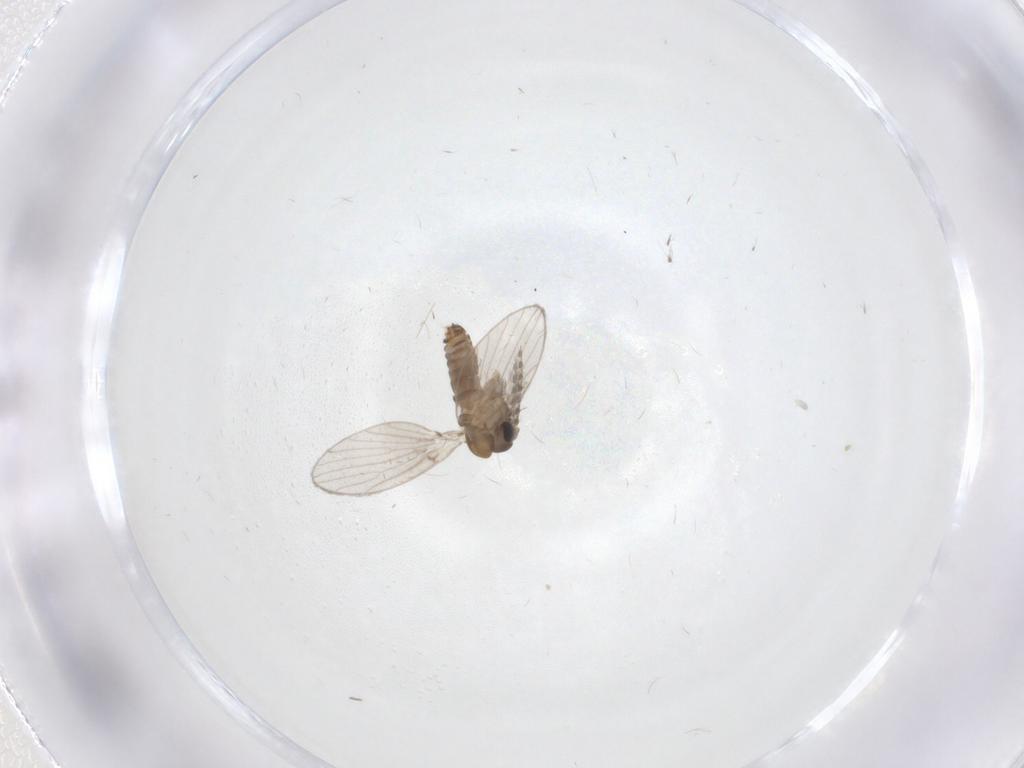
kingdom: Animalia
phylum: Arthropoda
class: Insecta
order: Diptera
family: Psychodidae
